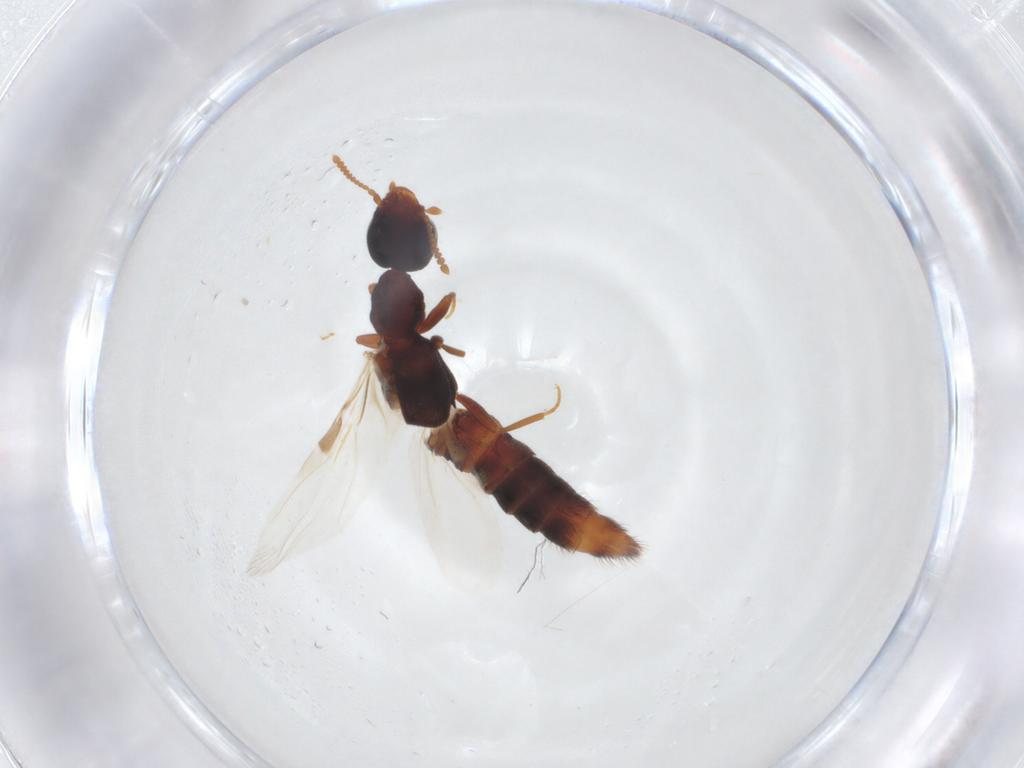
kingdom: Animalia
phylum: Arthropoda
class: Insecta
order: Coleoptera
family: Staphylinidae
